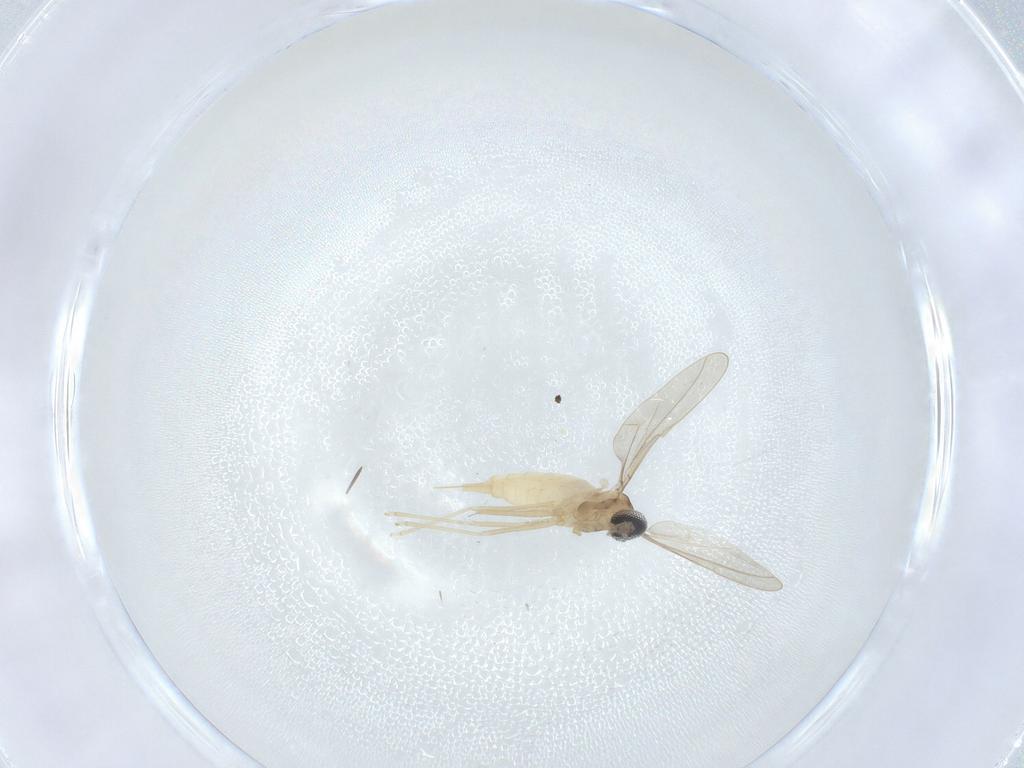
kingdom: Animalia
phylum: Arthropoda
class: Insecta
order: Diptera
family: Cecidomyiidae
